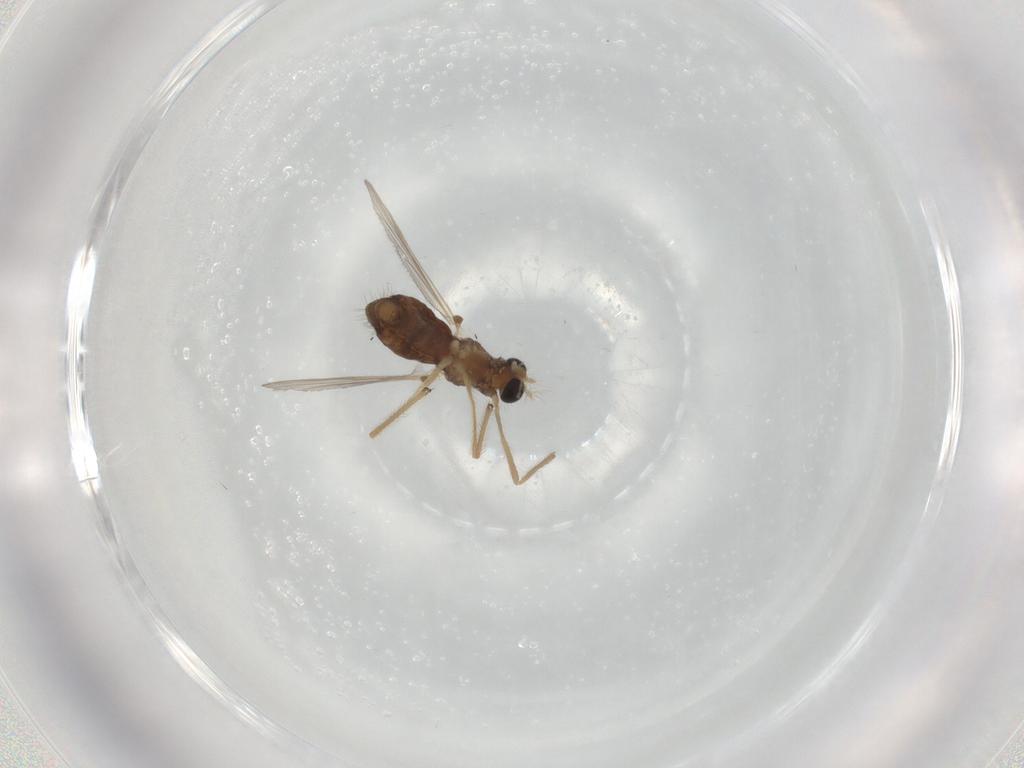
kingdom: Animalia
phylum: Arthropoda
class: Insecta
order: Diptera
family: Chironomidae
